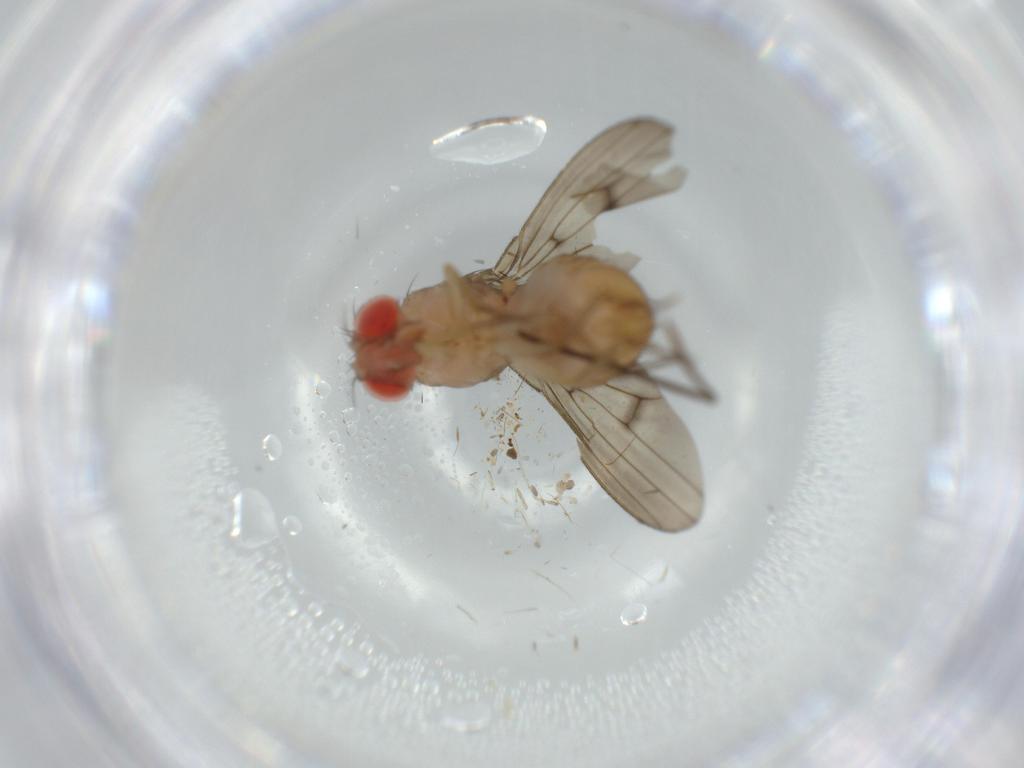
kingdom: Animalia
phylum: Arthropoda
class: Insecta
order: Diptera
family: Drosophilidae
